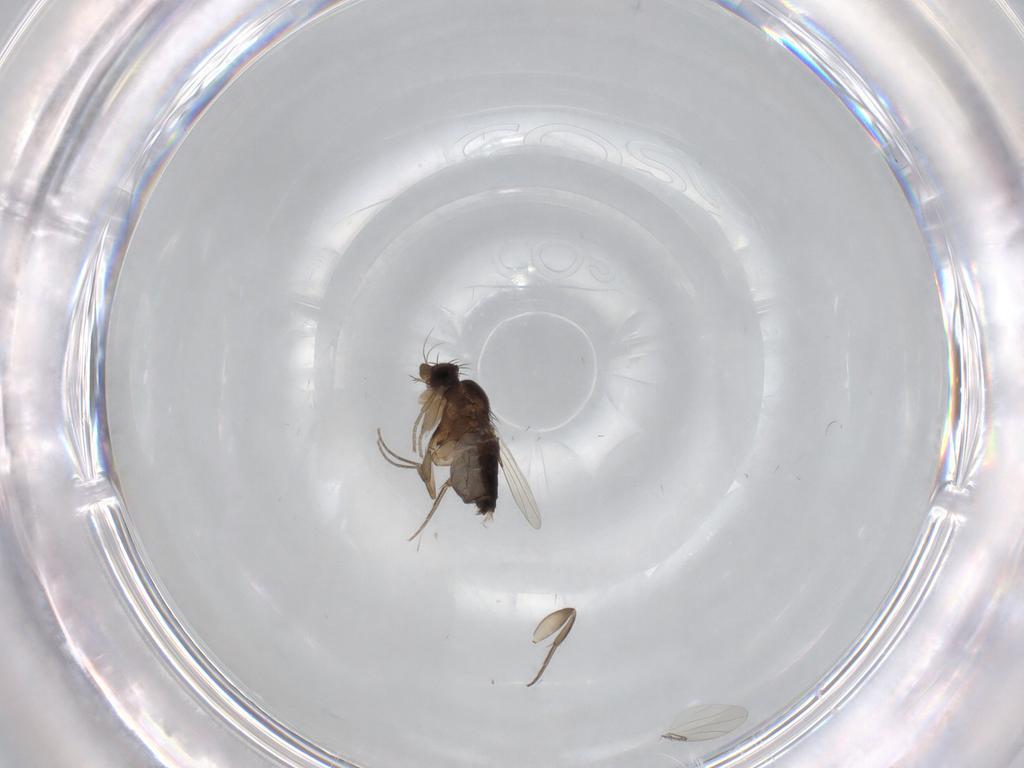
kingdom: Animalia
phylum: Arthropoda
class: Insecta
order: Diptera
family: Phoridae
